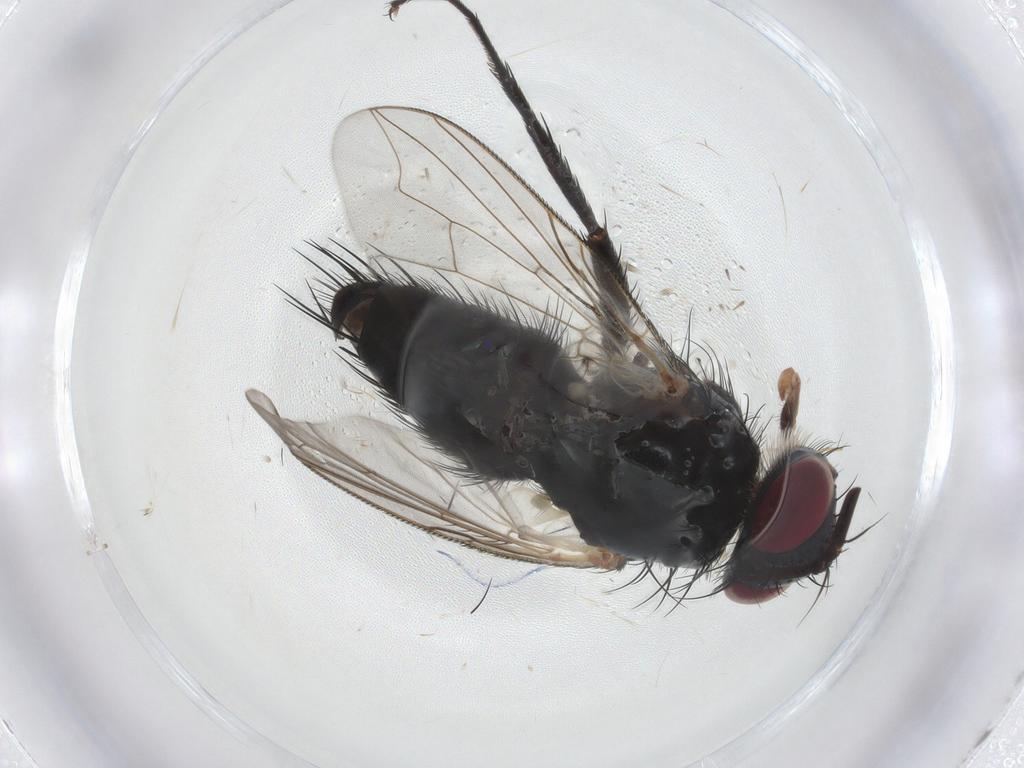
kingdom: Animalia
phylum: Arthropoda
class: Insecta
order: Diptera
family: Tachinidae
